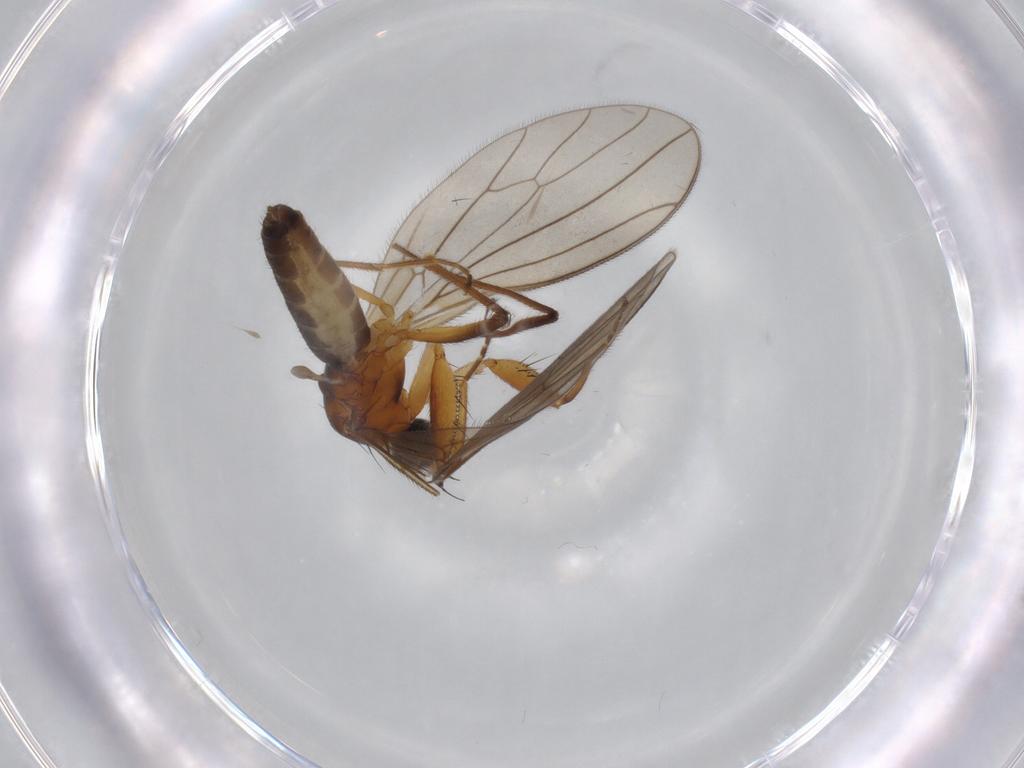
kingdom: Animalia
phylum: Arthropoda
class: Insecta
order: Diptera
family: Empididae
